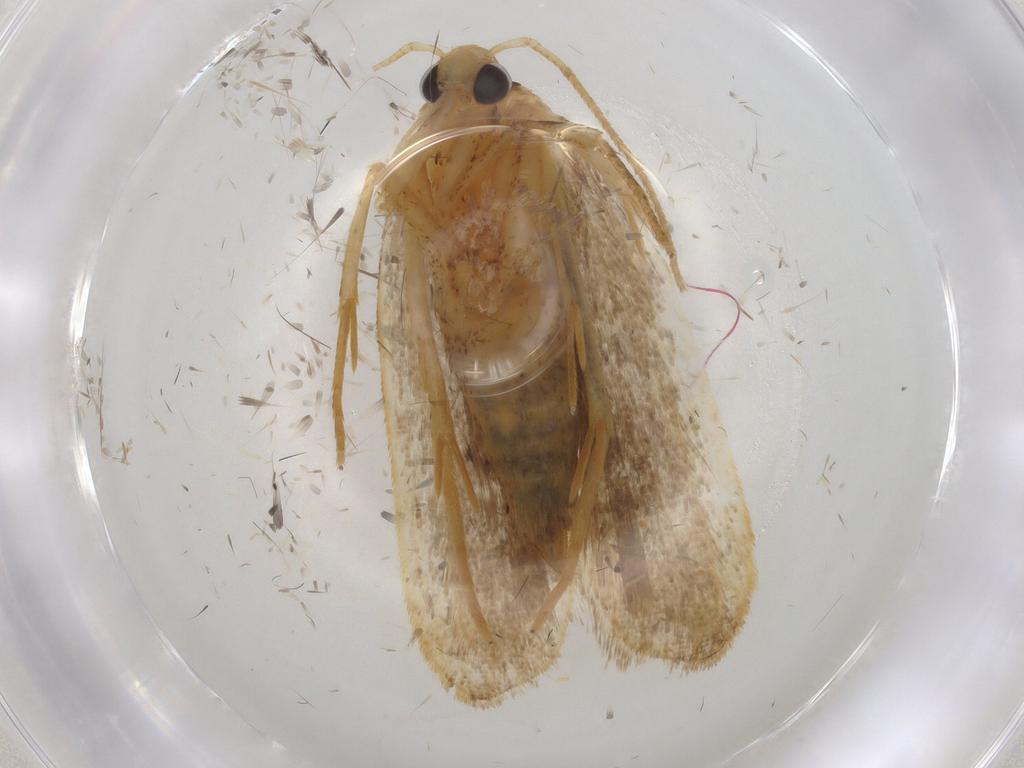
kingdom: Animalia
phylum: Arthropoda
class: Insecta
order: Lepidoptera
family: Autostichidae
